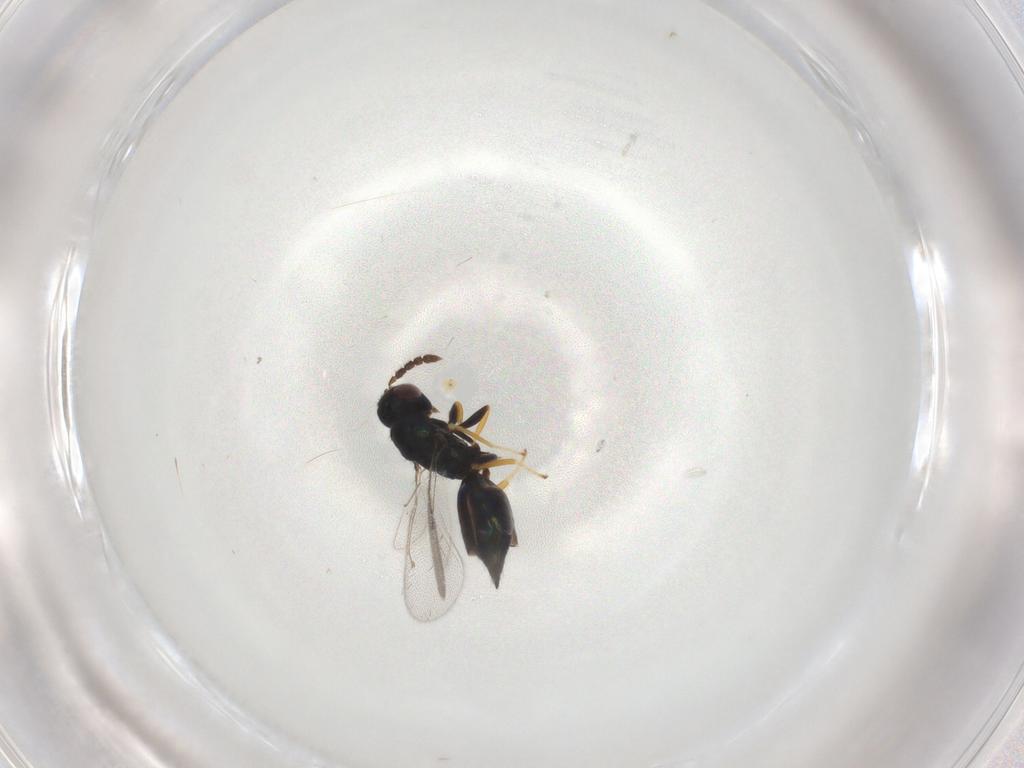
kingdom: Animalia
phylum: Arthropoda
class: Insecta
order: Hymenoptera
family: Eulophidae
